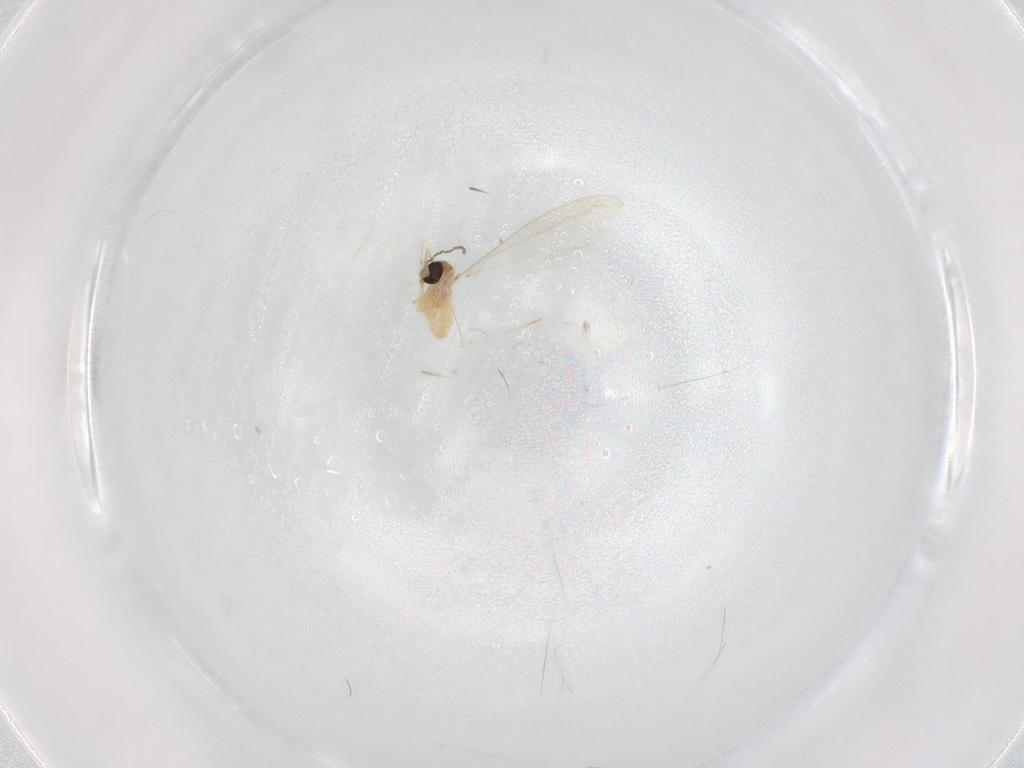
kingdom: Animalia
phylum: Arthropoda
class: Insecta
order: Diptera
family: Cecidomyiidae
